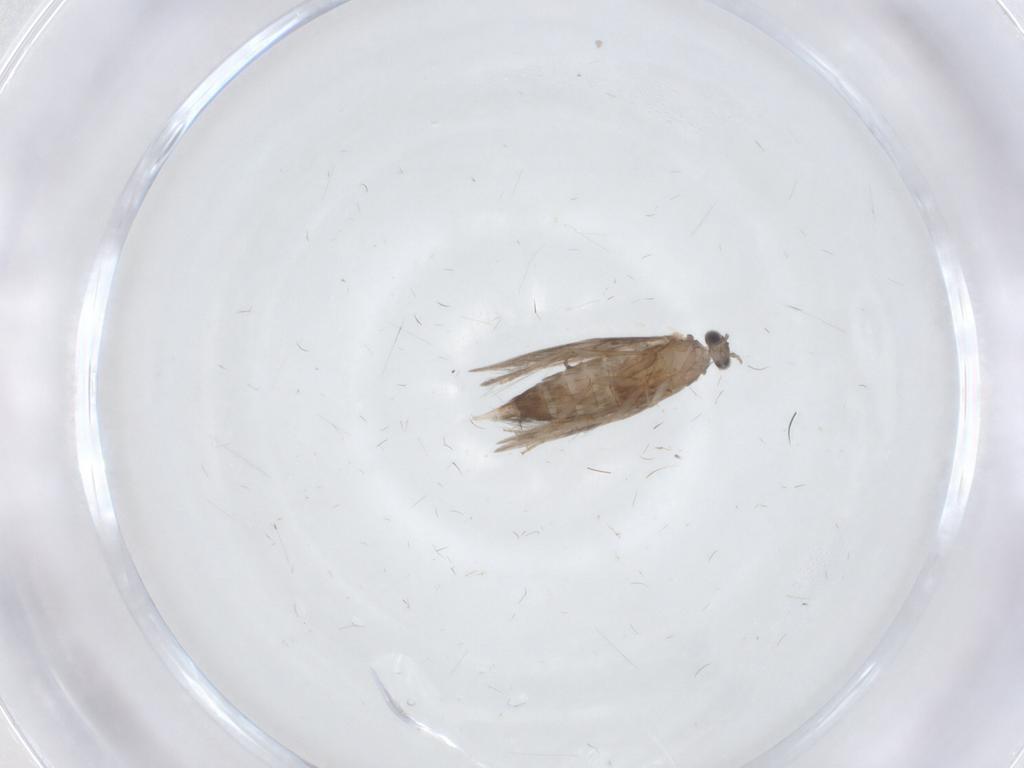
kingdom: Animalia
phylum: Arthropoda
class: Insecta
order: Trichoptera
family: Hydroptilidae
